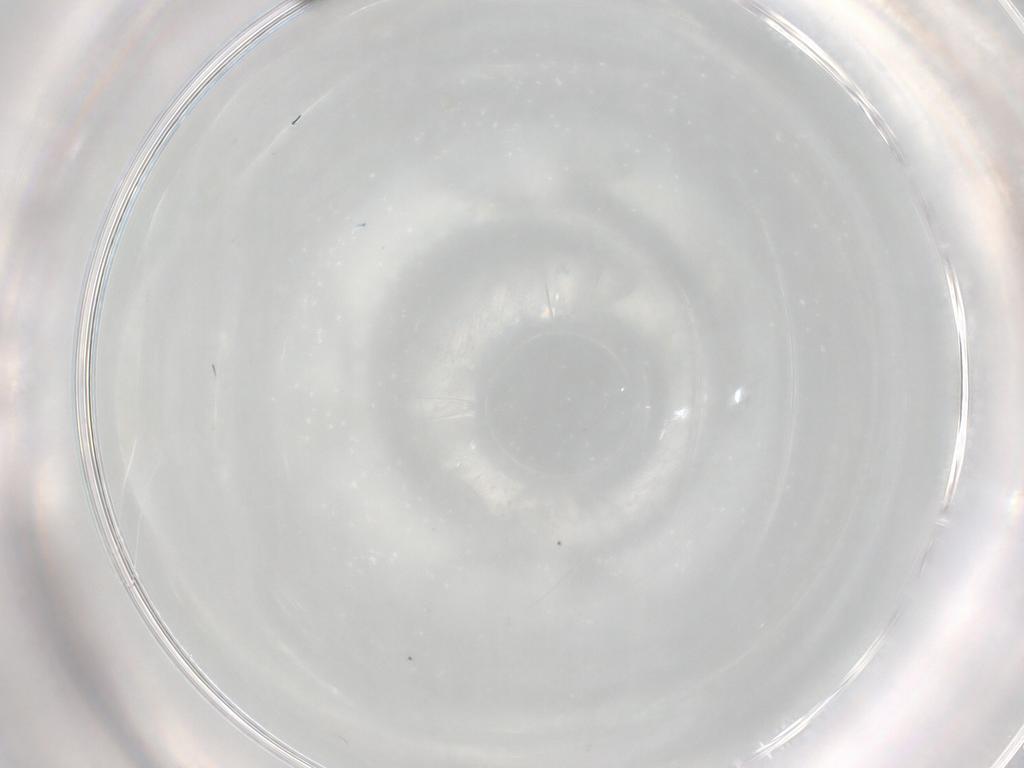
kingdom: Animalia
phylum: Arthropoda
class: Insecta
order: Hymenoptera
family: Scelionidae
